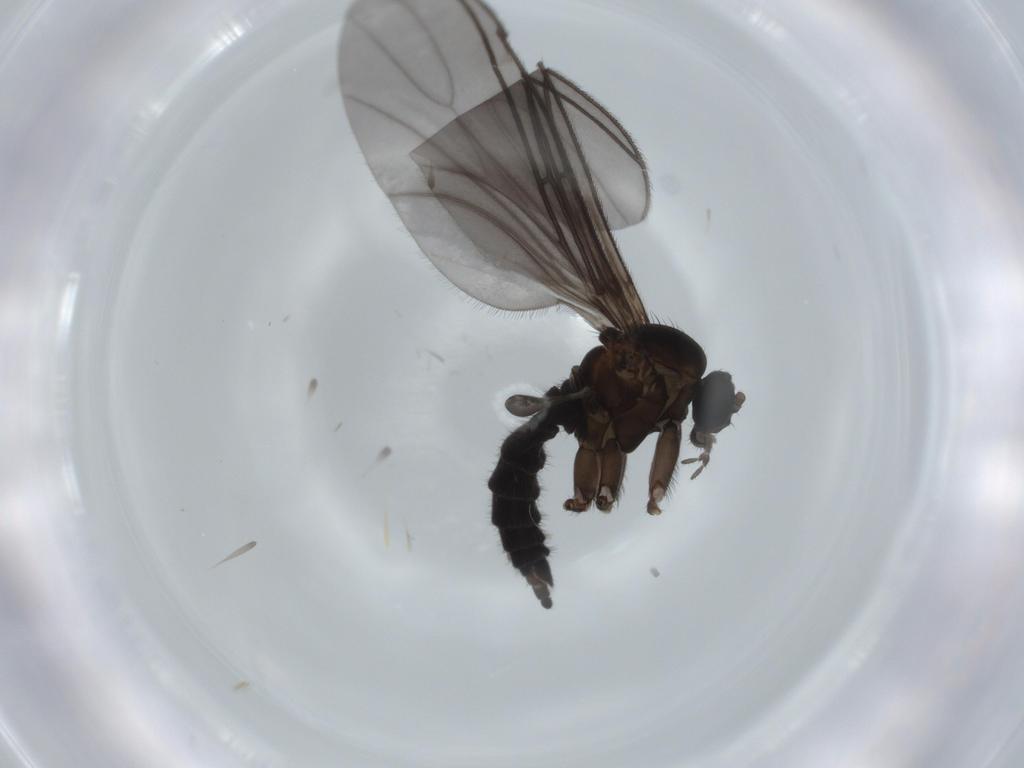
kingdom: Animalia
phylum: Arthropoda
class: Insecta
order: Diptera
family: Sciaridae
